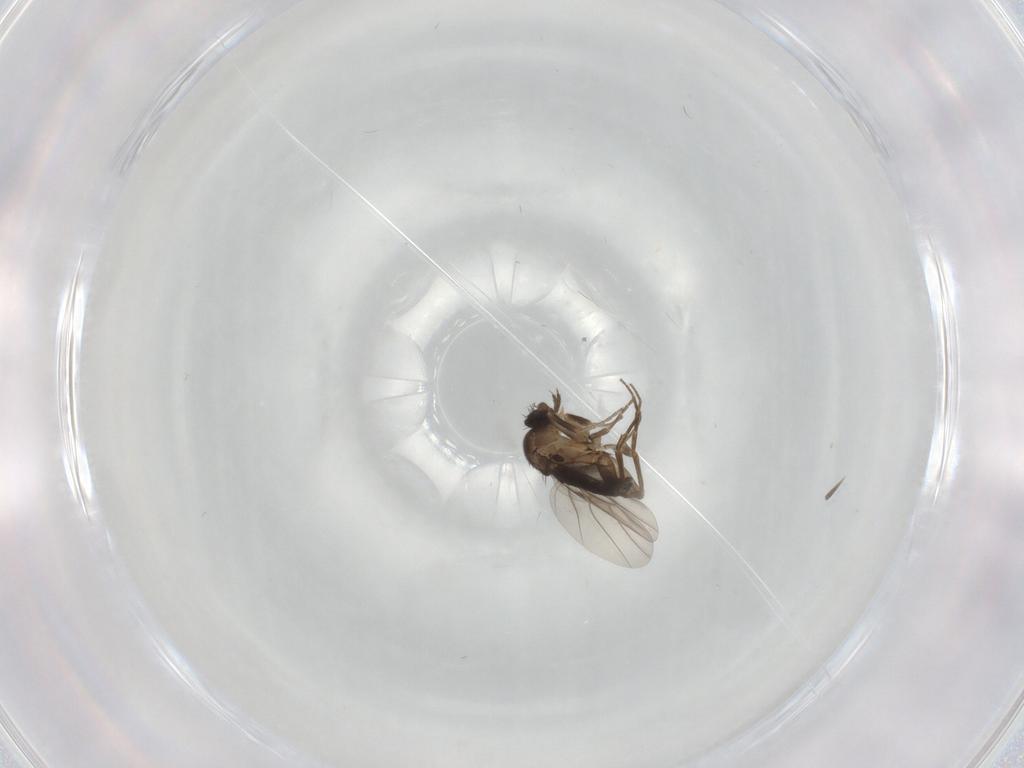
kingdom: Animalia
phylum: Arthropoda
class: Insecta
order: Diptera
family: Phoridae
